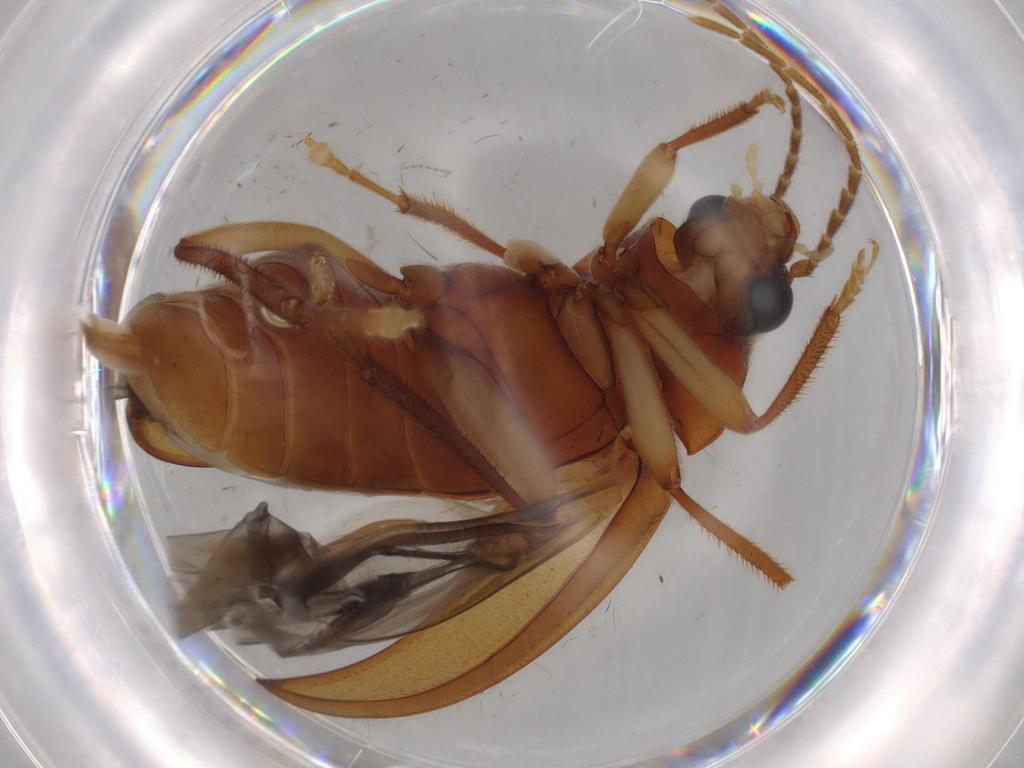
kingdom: Animalia
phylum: Arthropoda
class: Insecta
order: Coleoptera
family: Ptilodactylidae
